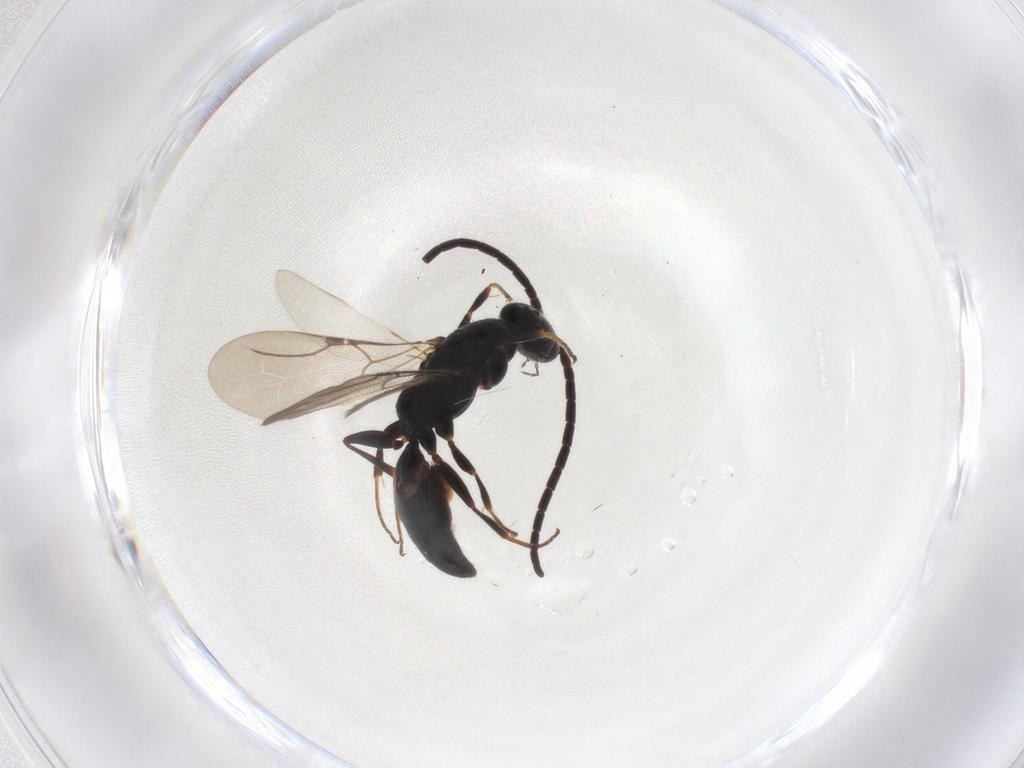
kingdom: Animalia
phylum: Arthropoda
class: Insecta
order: Hymenoptera
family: Bethylidae
